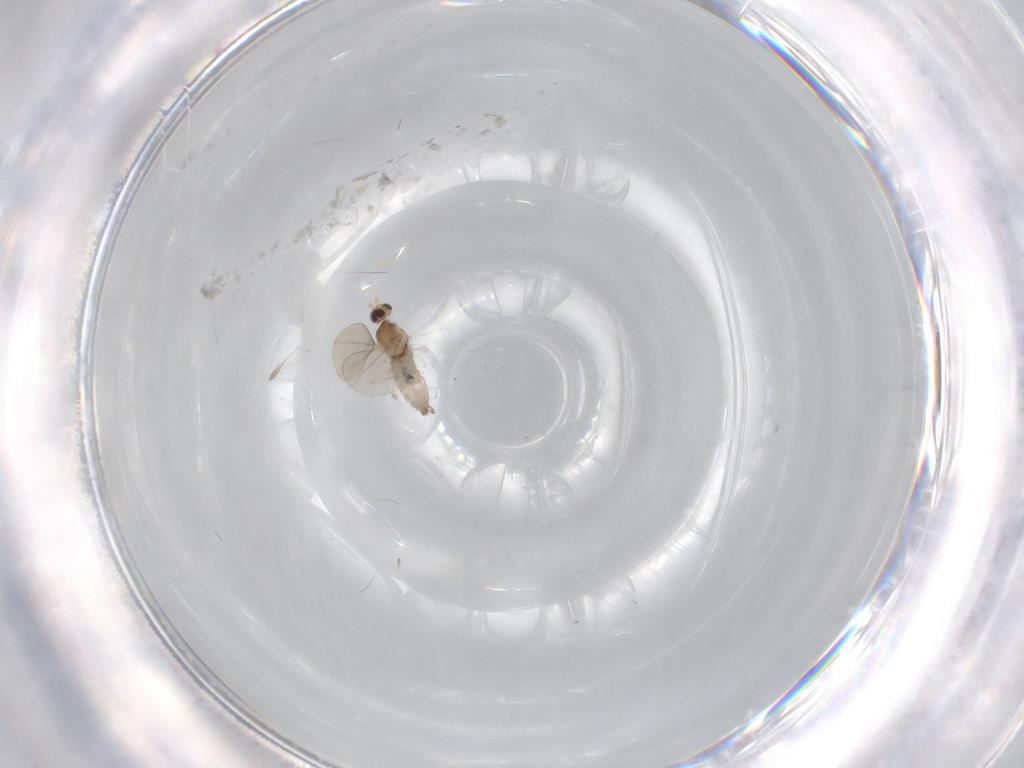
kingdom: Animalia
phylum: Arthropoda
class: Insecta
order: Diptera
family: Cecidomyiidae
